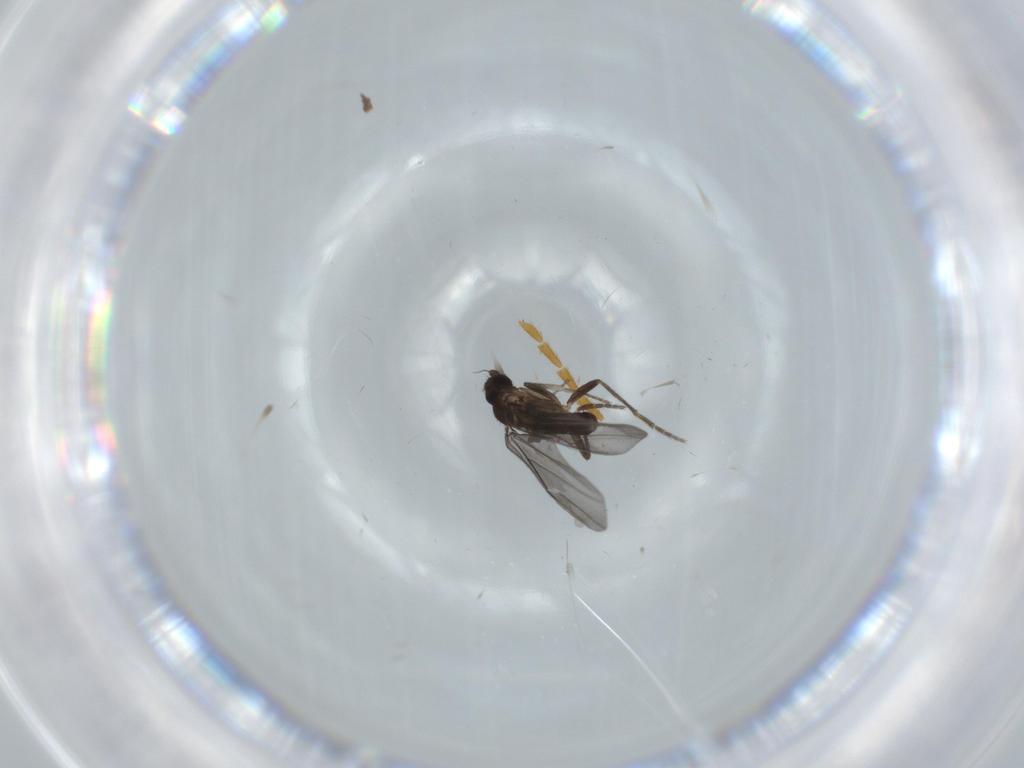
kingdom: Animalia
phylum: Arthropoda
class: Insecta
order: Diptera
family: Phoridae
